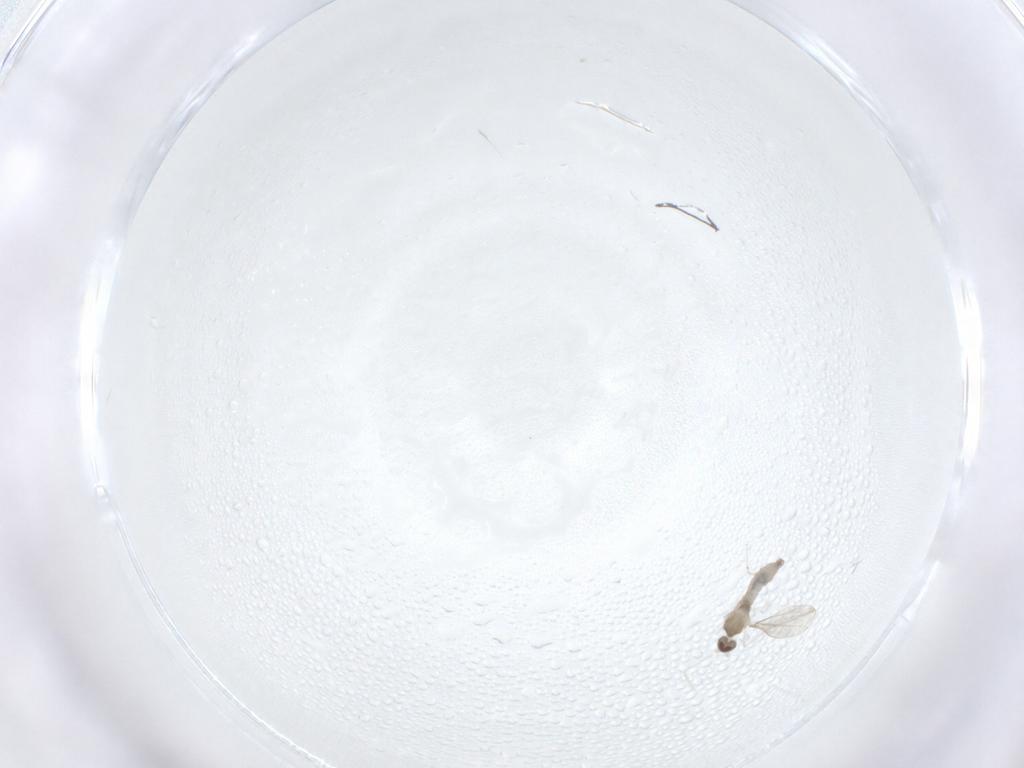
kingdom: Animalia
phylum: Arthropoda
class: Insecta
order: Diptera
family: Cecidomyiidae
